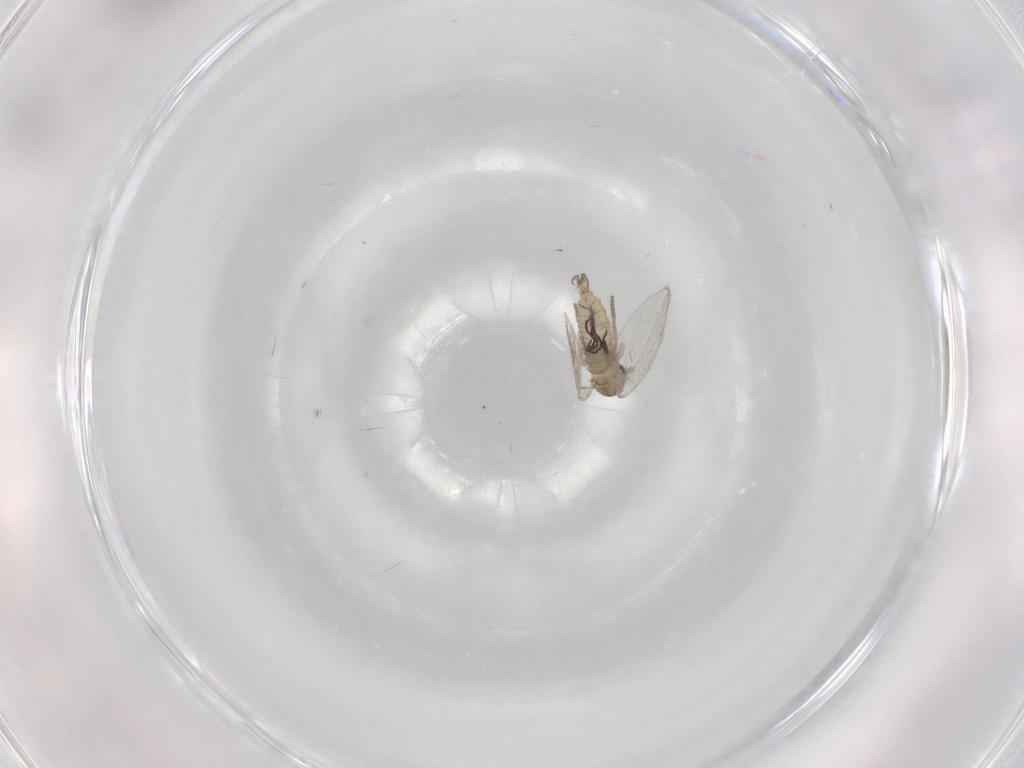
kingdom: Animalia
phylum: Arthropoda
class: Insecta
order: Diptera
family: Psychodidae
